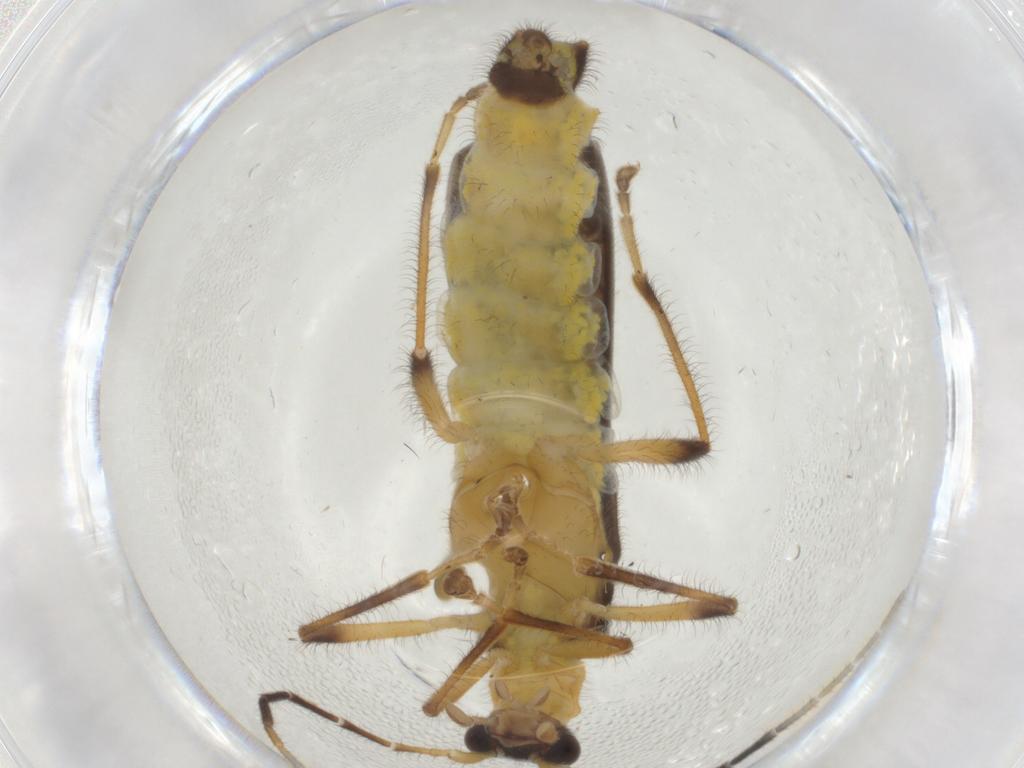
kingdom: Animalia
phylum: Arthropoda
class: Insecta
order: Coleoptera
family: Cantharidae
